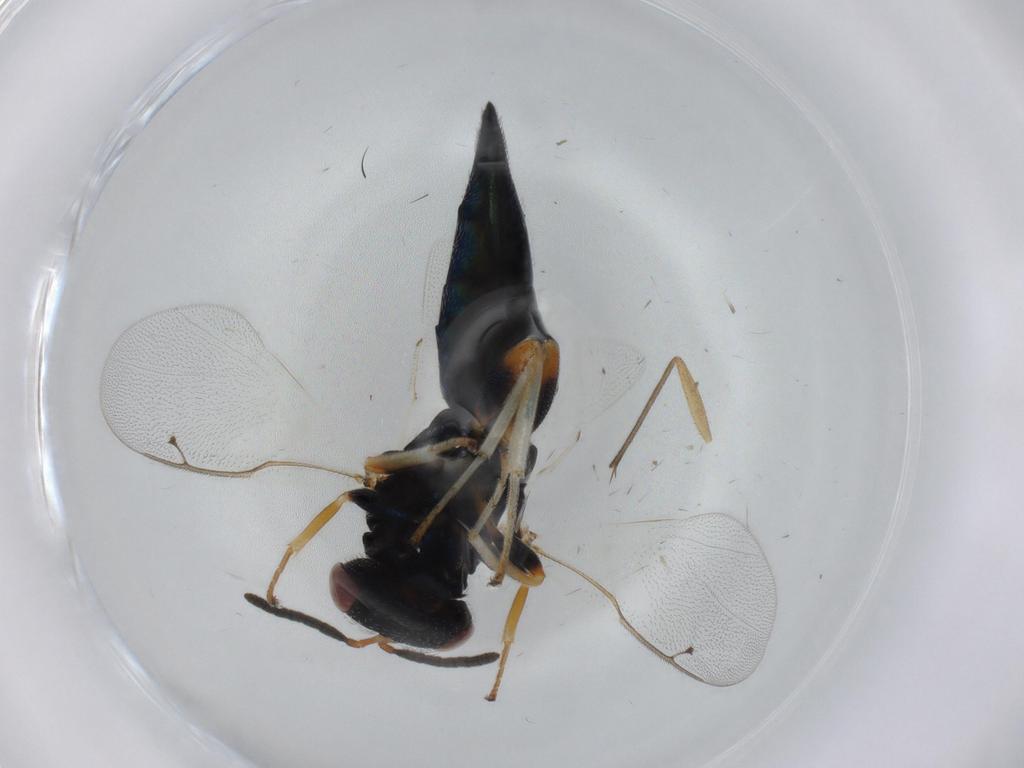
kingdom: Animalia
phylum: Arthropoda
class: Insecta
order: Hymenoptera
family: Pteromalidae
